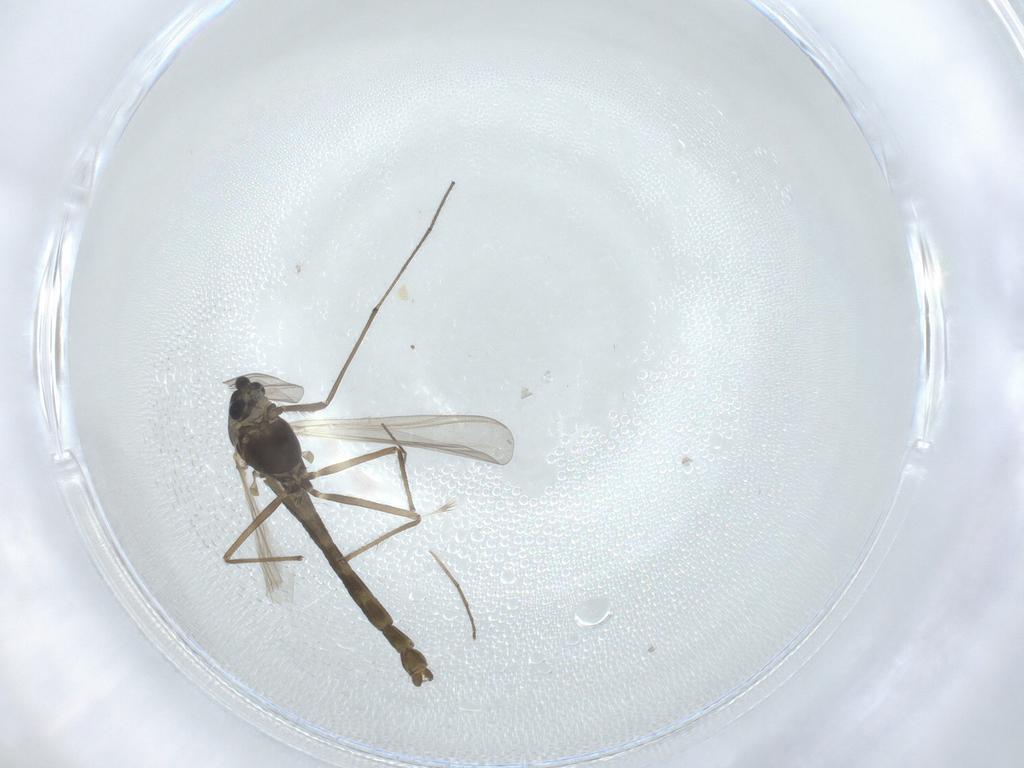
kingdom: Animalia
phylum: Arthropoda
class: Insecta
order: Diptera
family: Chironomidae
